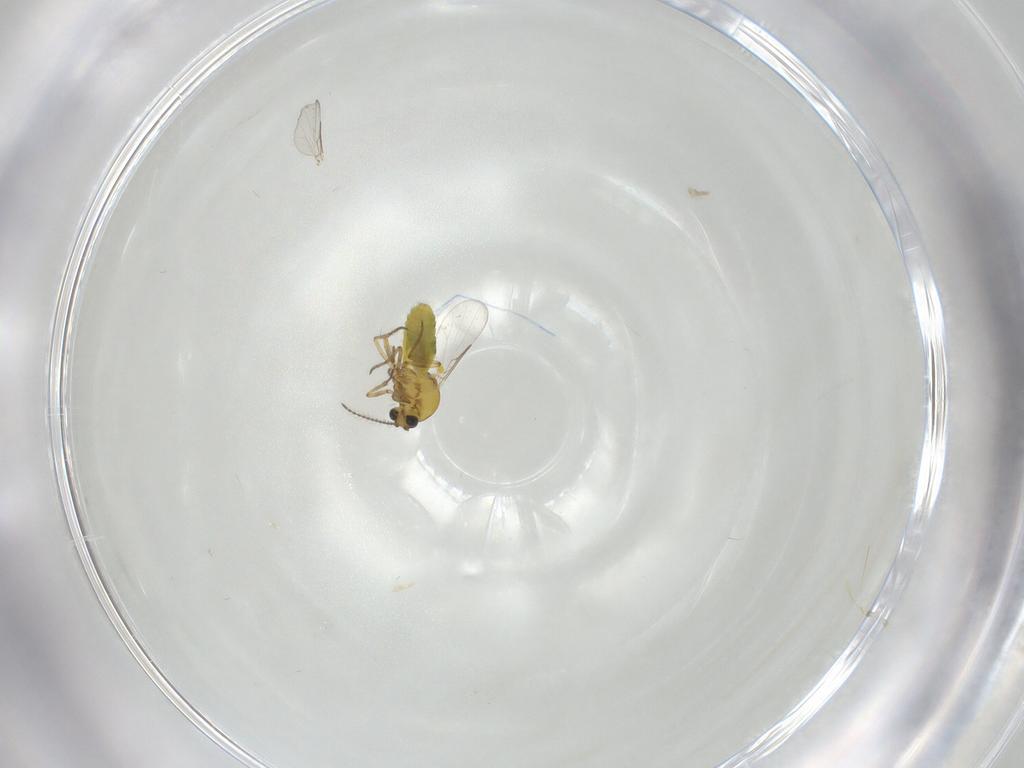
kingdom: Animalia
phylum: Arthropoda
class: Insecta
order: Diptera
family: Ceratopogonidae
